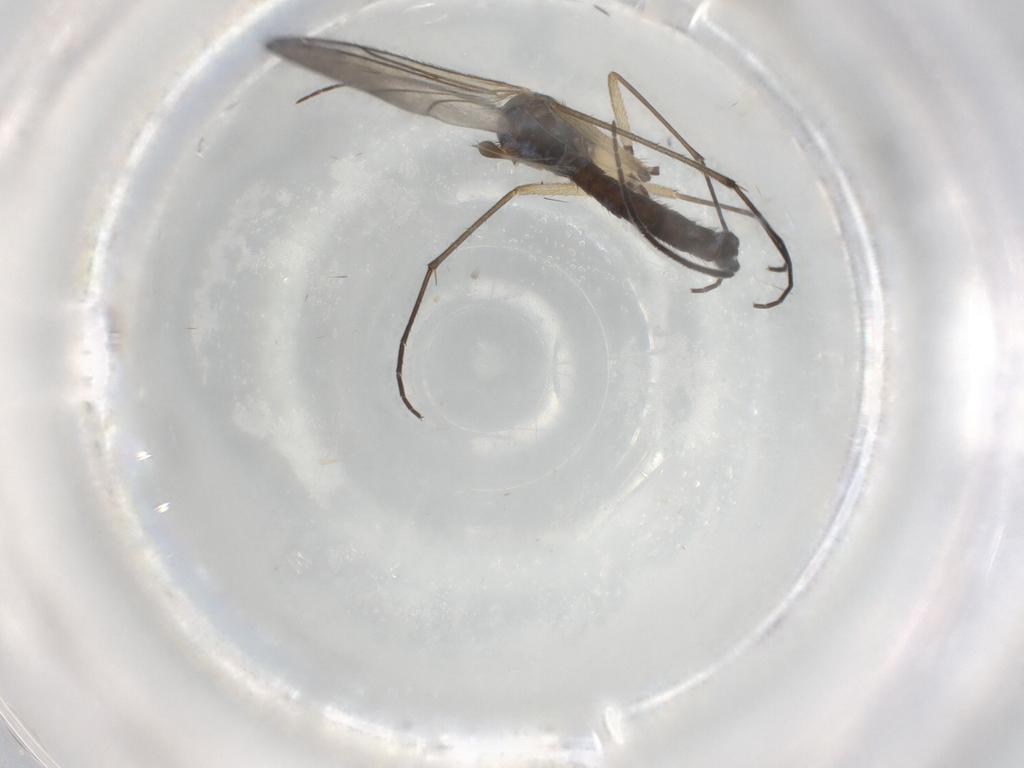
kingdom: Animalia
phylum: Arthropoda
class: Insecta
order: Diptera
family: Sciaridae
